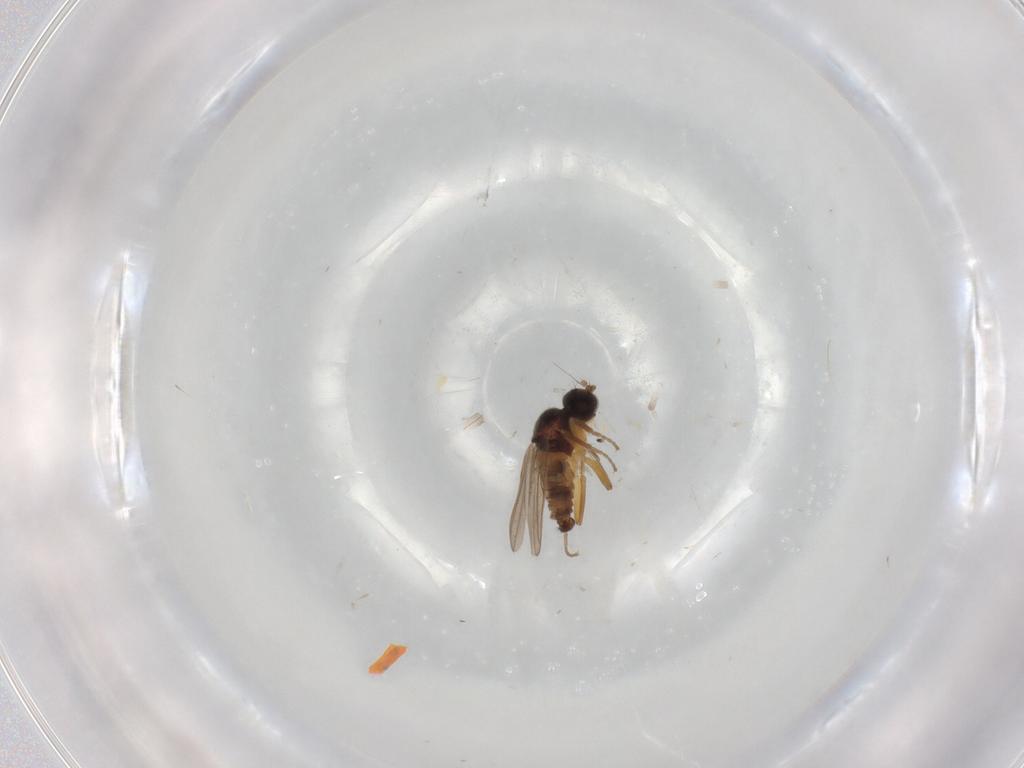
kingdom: Animalia
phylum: Arthropoda
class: Insecta
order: Diptera
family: Hybotidae
